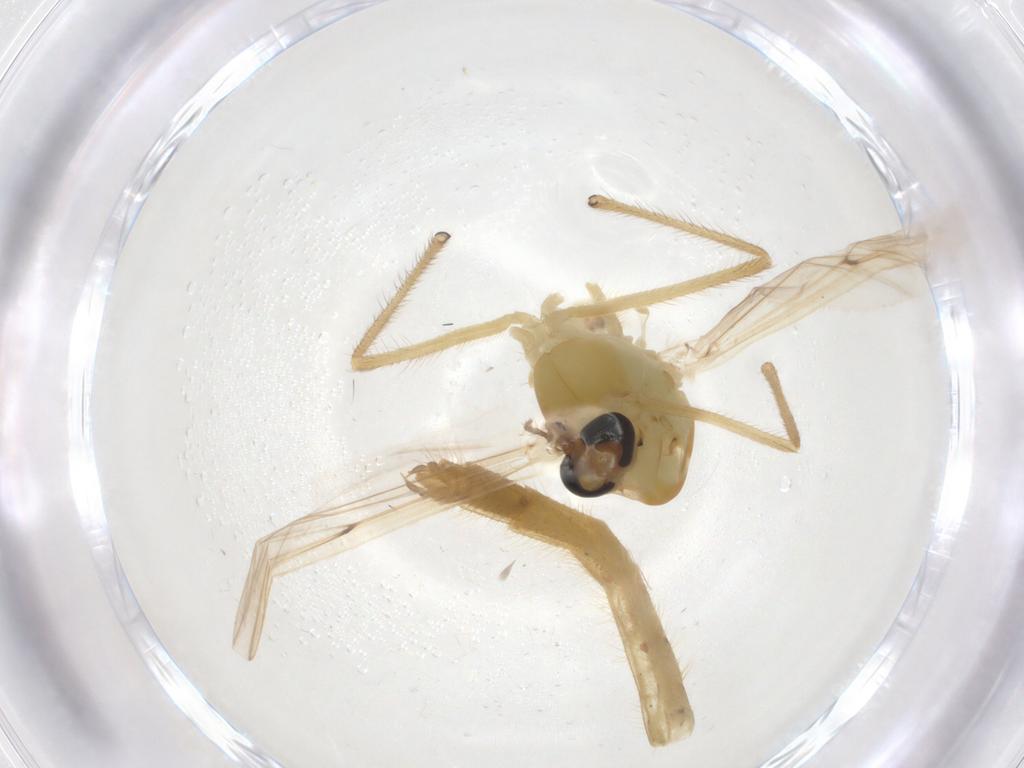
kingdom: Animalia
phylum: Arthropoda
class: Insecta
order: Diptera
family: Chironomidae
